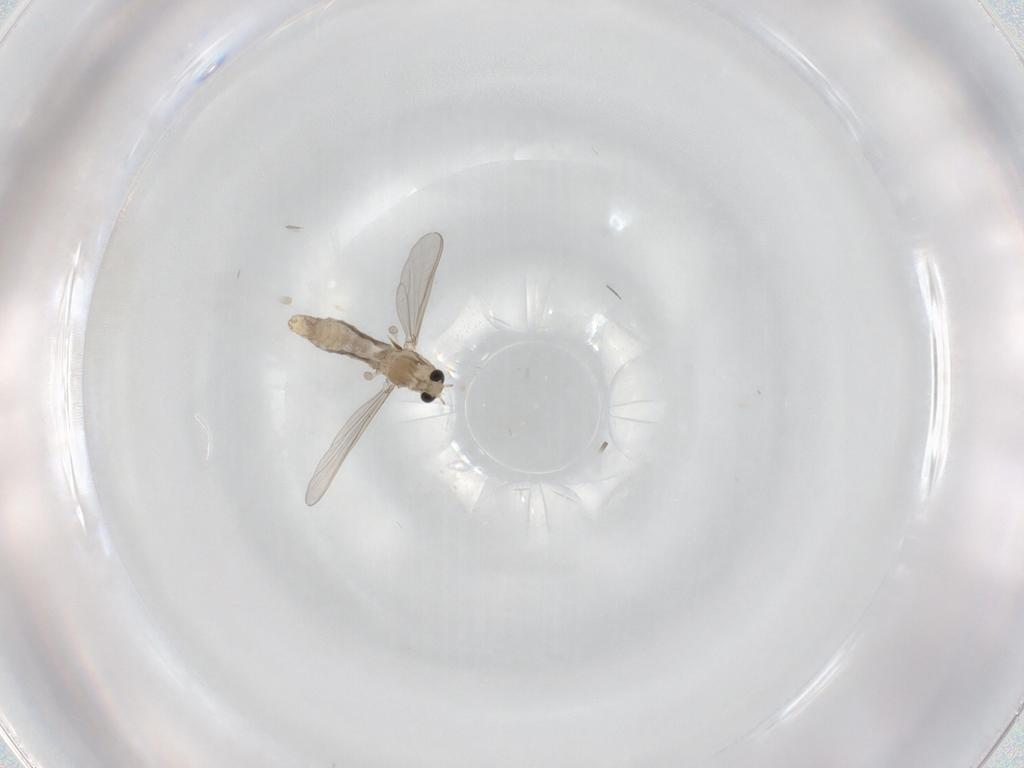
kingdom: Animalia
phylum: Arthropoda
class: Insecta
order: Diptera
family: Chironomidae
